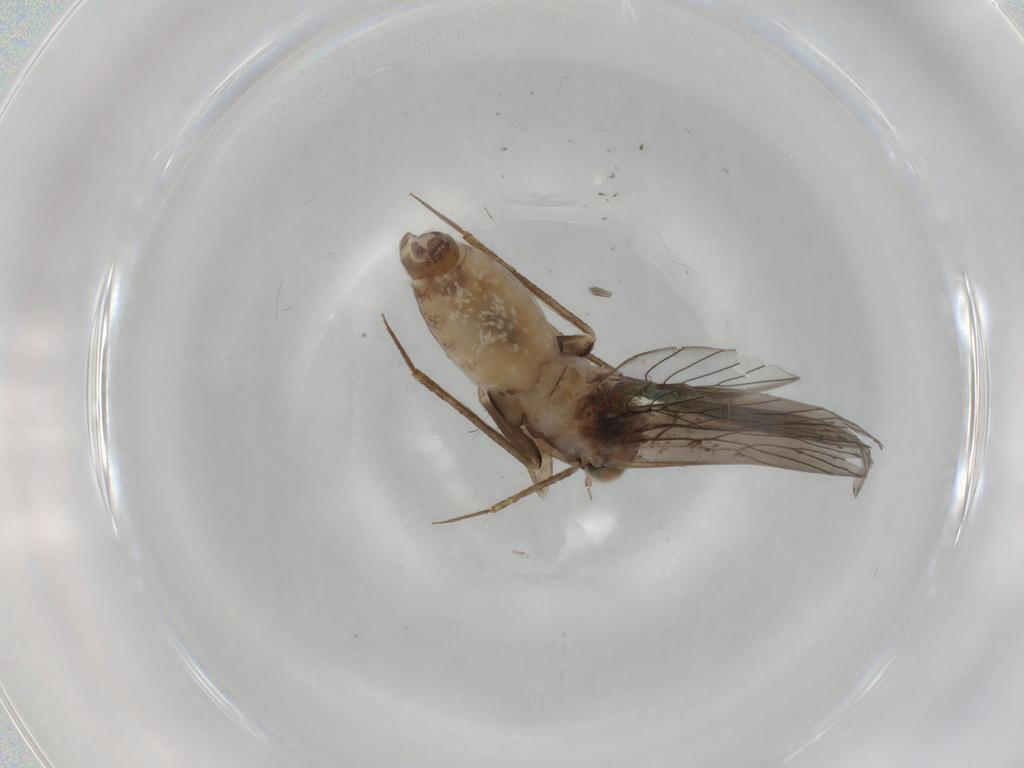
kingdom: Animalia
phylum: Arthropoda
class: Insecta
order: Psocodea
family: Lepidopsocidae
